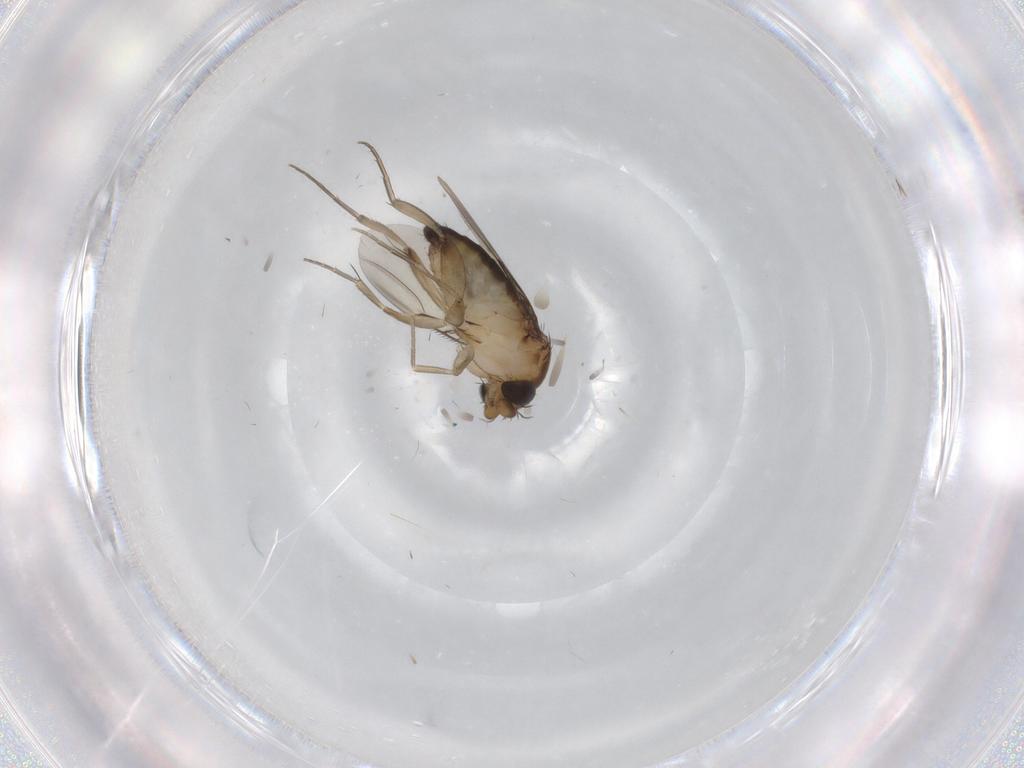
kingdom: Animalia
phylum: Arthropoda
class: Insecta
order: Diptera
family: Phoridae
